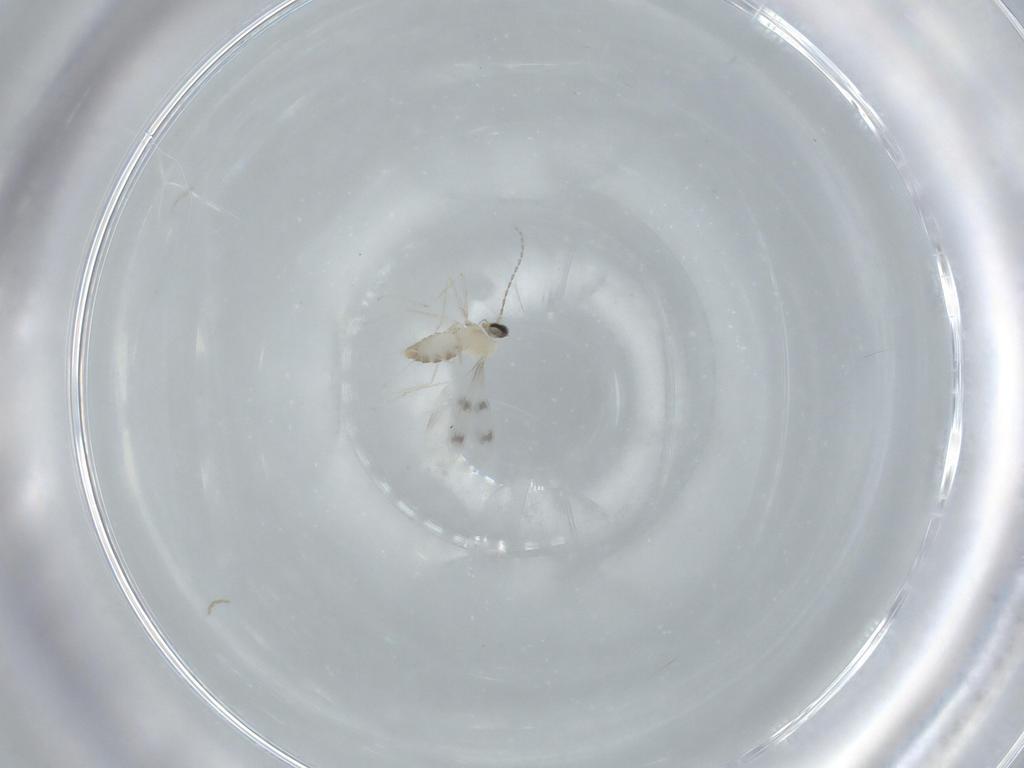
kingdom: Animalia
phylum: Arthropoda
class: Insecta
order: Diptera
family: Cecidomyiidae
